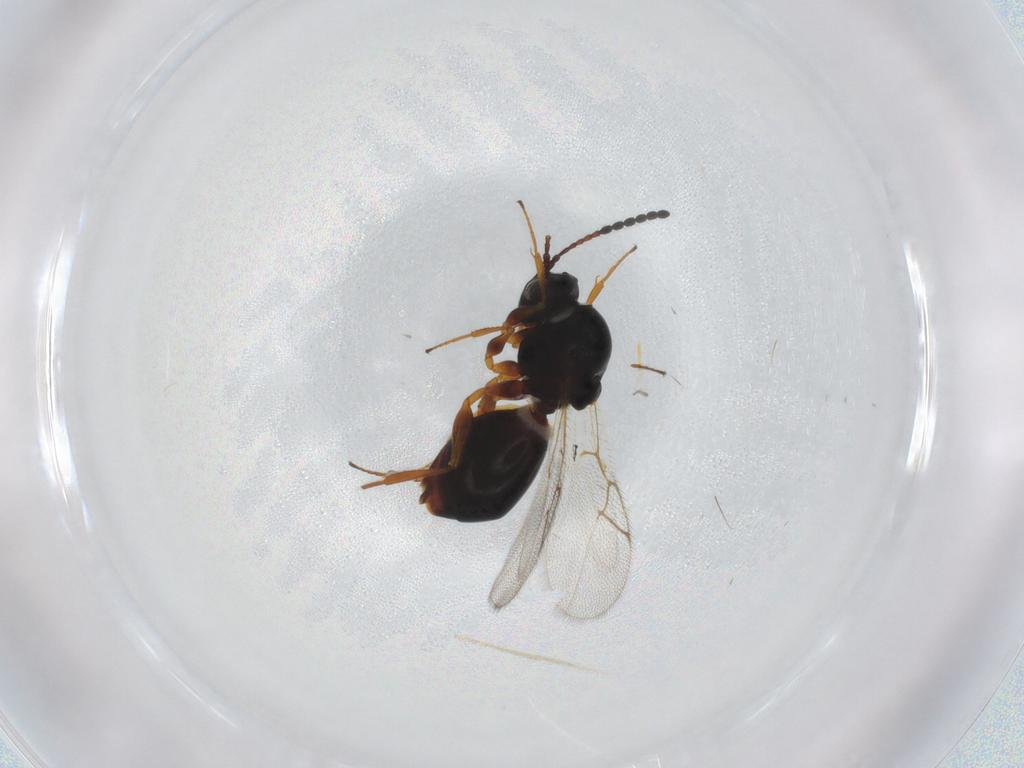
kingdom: Animalia
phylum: Arthropoda
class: Insecta
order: Hymenoptera
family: Figitidae
